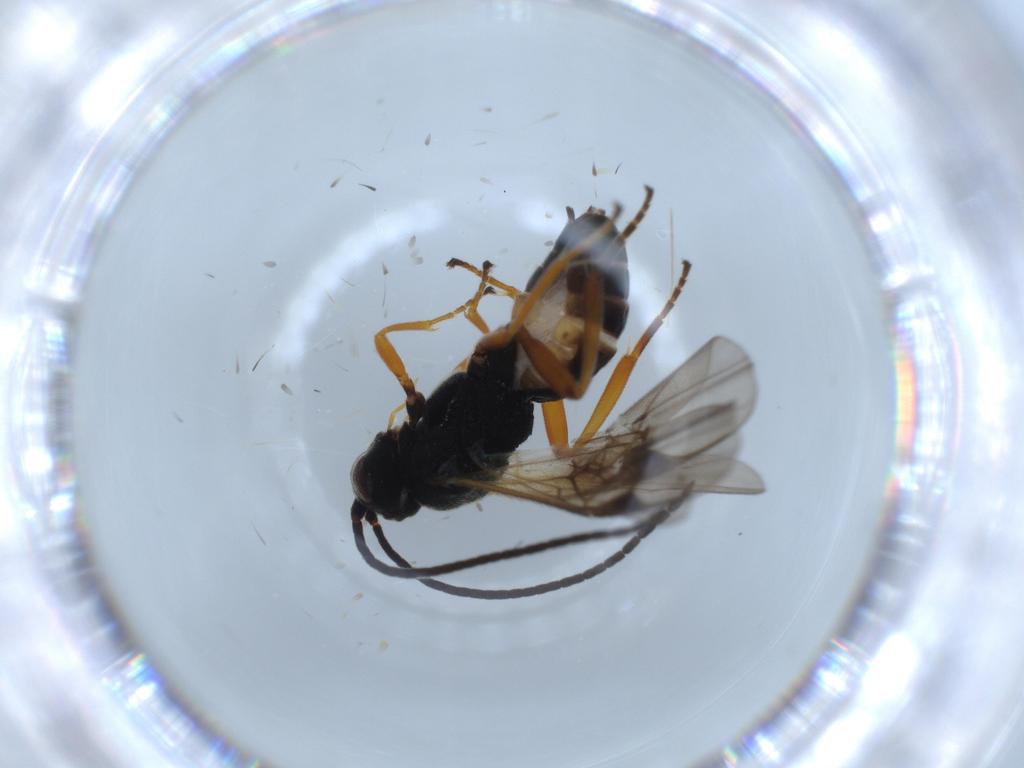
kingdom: Animalia
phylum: Arthropoda
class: Insecta
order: Hymenoptera
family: Braconidae
